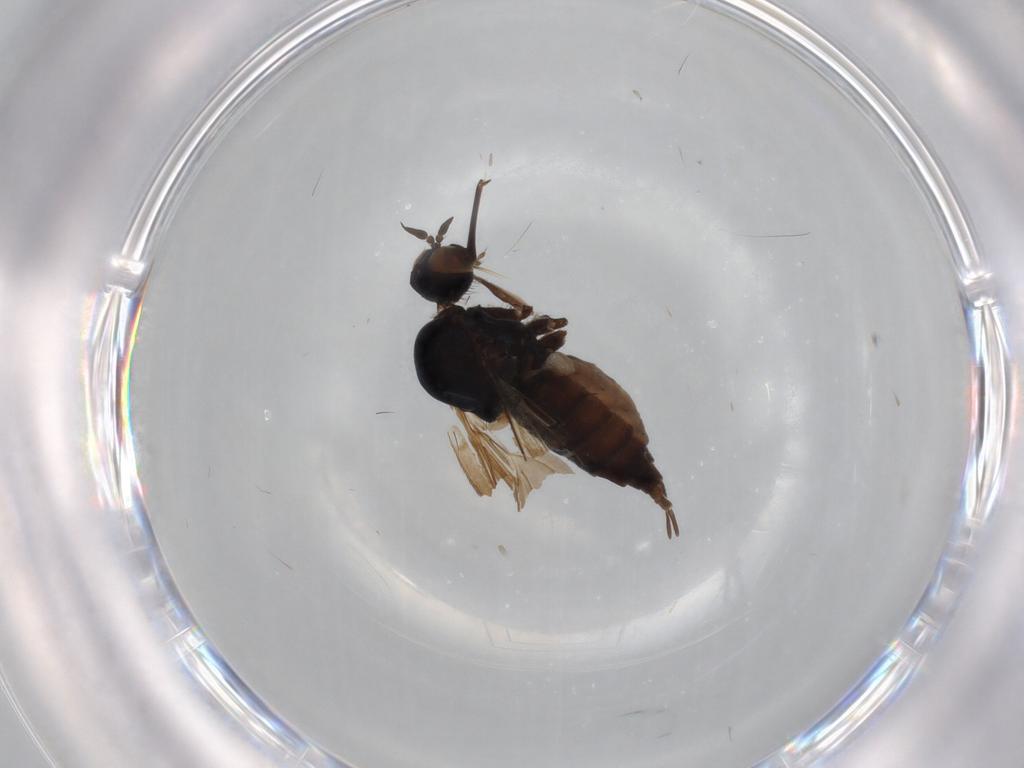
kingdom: Animalia
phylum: Arthropoda
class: Insecta
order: Diptera
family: Empididae
